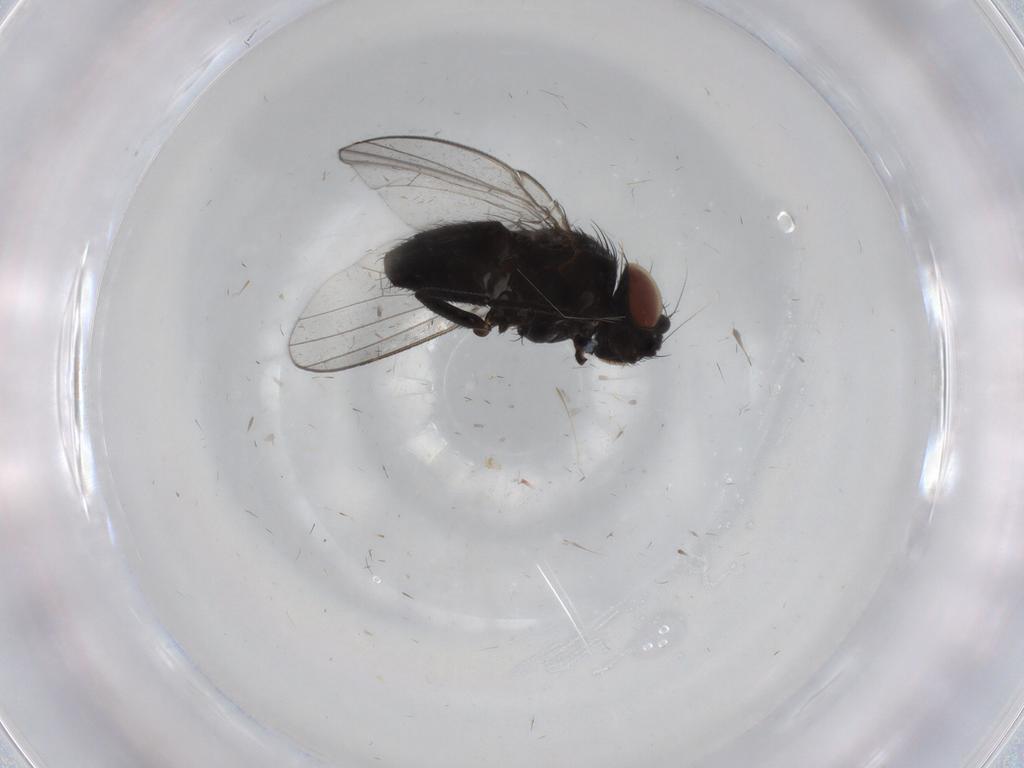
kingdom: Animalia
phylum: Arthropoda
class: Insecta
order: Diptera
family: Milichiidae
